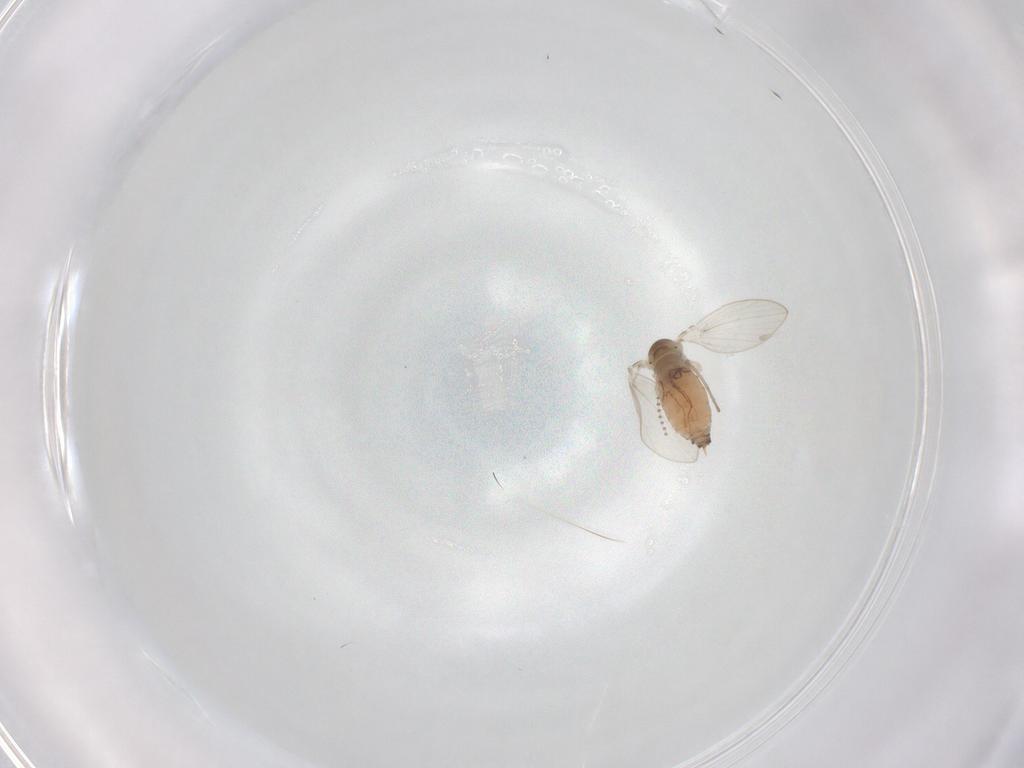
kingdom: Animalia
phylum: Arthropoda
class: Insecta
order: Diptera
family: Psychodidae
